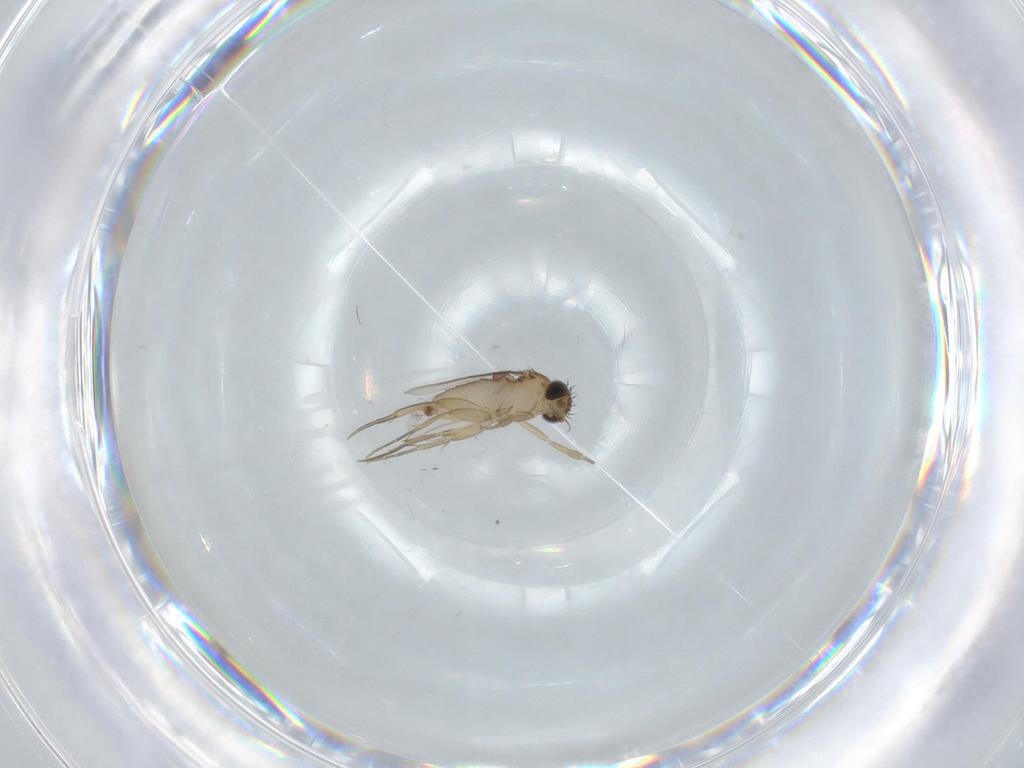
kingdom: Animalia
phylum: Arthropoda
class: Insecta
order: Diptera
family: Phoridae
